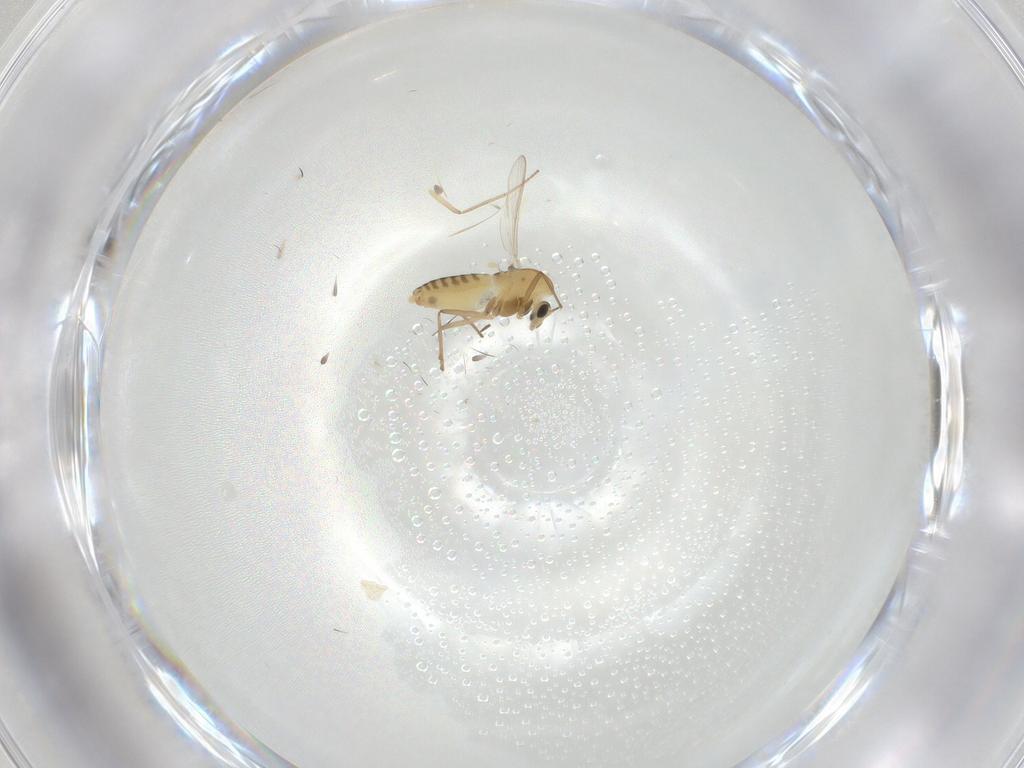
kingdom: Animalia
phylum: Arthropoda
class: Insecta
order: Diptera
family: Chironomidae
